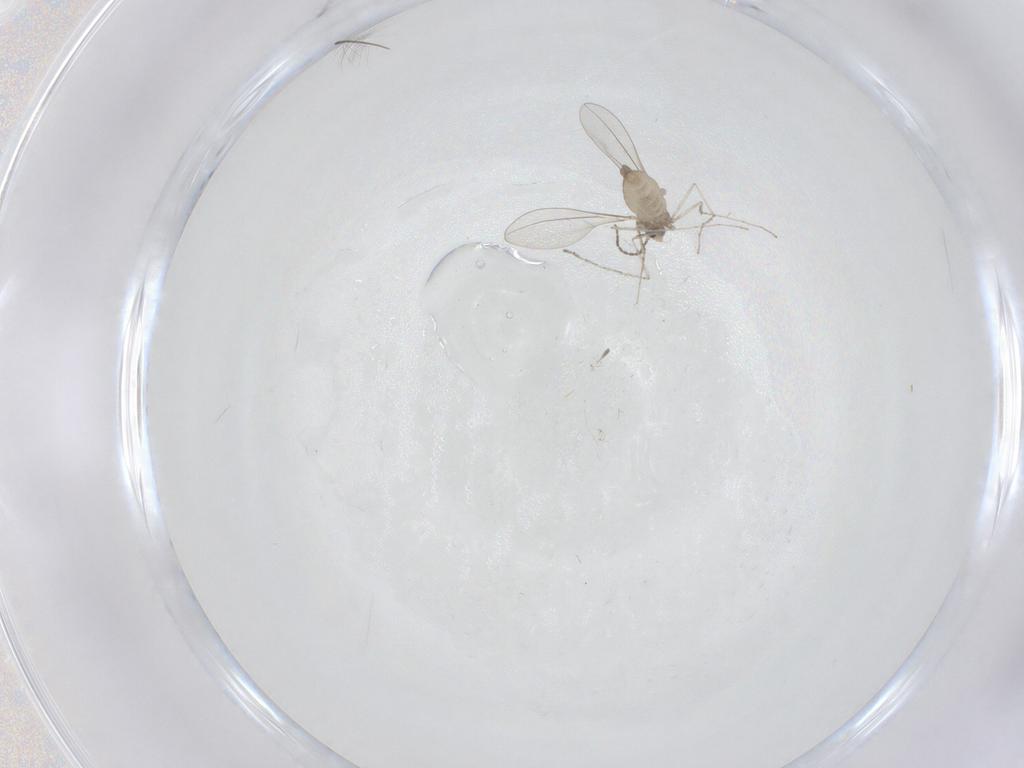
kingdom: Animalia
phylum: Arthropoda
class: Insecta
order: Diptera
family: Chironomidae
